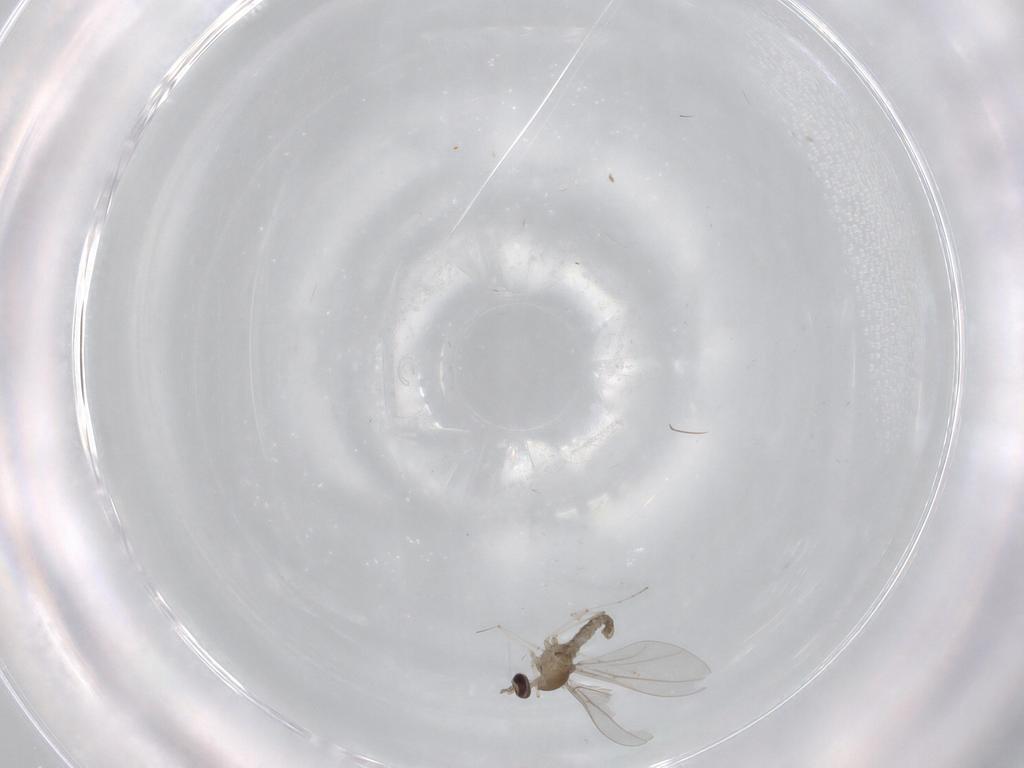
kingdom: Animalia
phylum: Arthropoda
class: Insecta
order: Diptera
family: Cecidomyiidae
